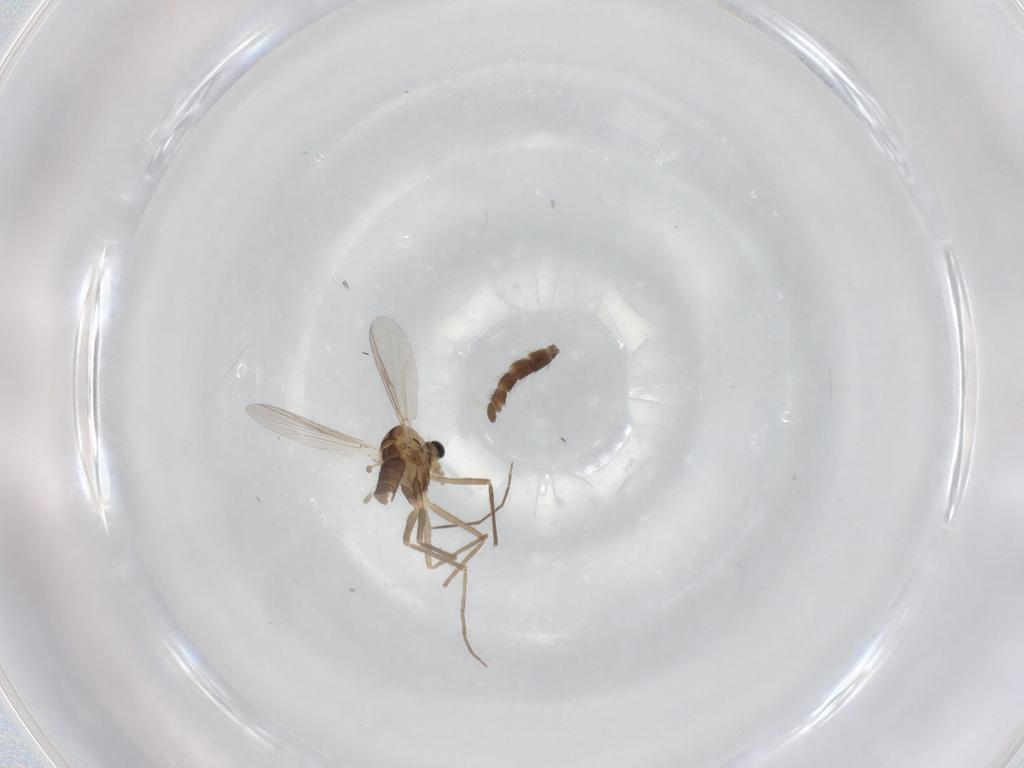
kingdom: Animalia
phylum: Arthropoda
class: Insecta
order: Diptera
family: Chironomidae
